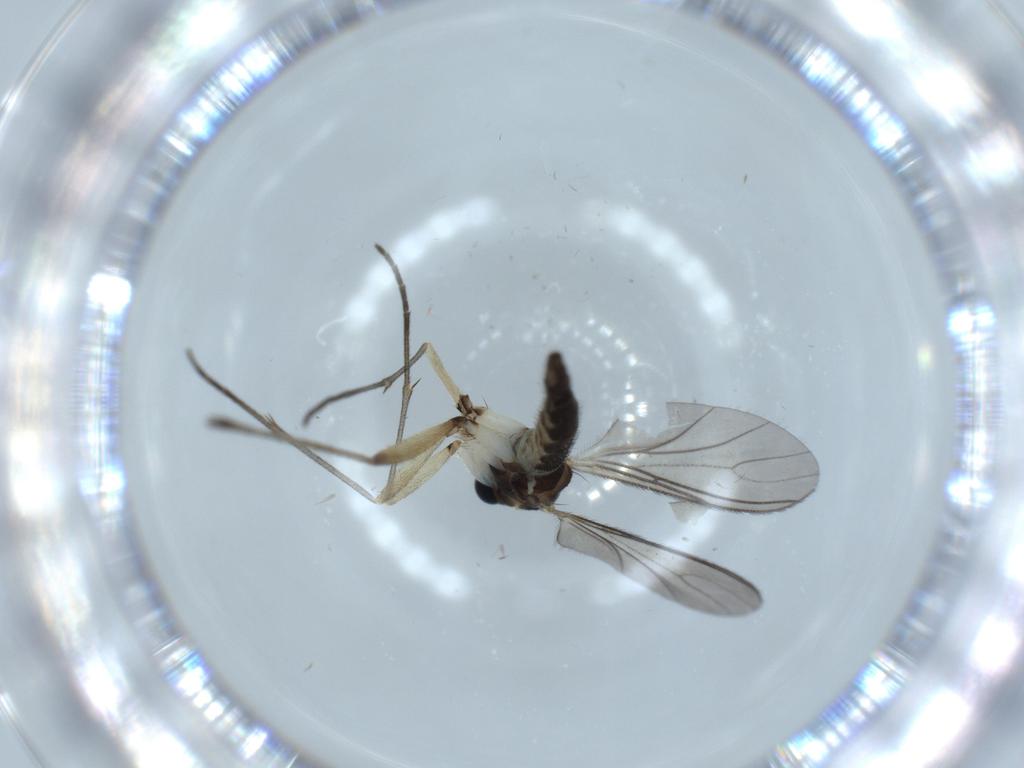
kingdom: Animalia
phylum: Arthropoda
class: Insecta
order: Diptera
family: Sciaridae
